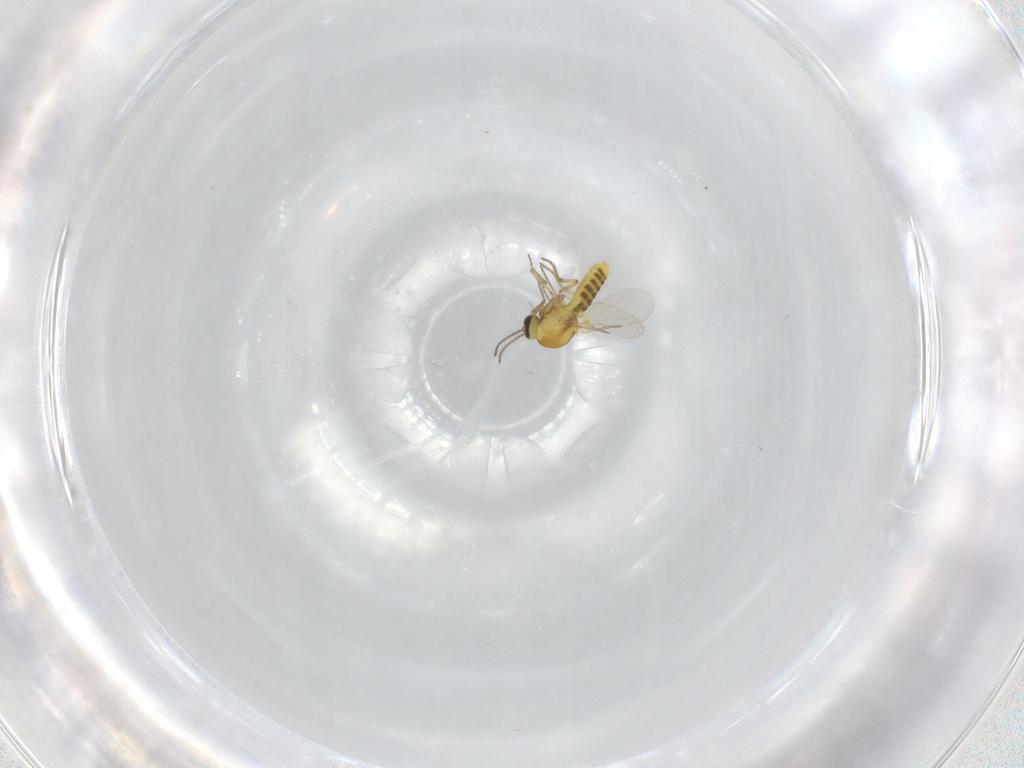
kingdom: Animalia
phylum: Arthropoda
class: Insecta
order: Diptera
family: Ceratopogonidae
